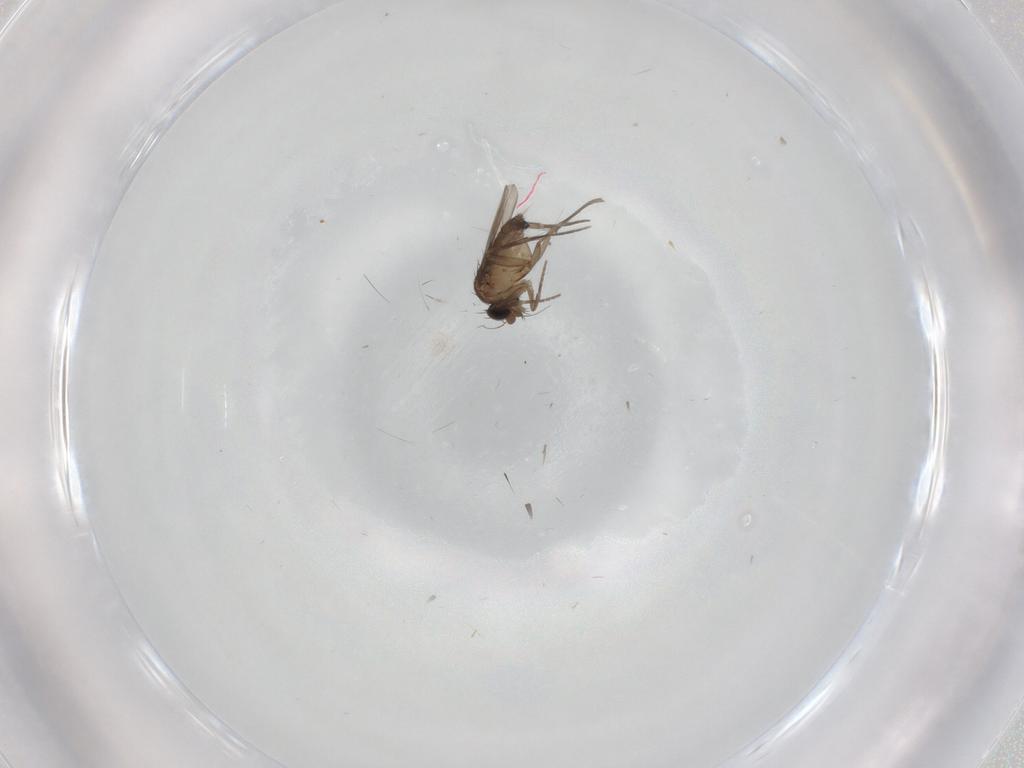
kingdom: Animalia
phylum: Arthropoda
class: Insecta
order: Diptera
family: Phoridae
